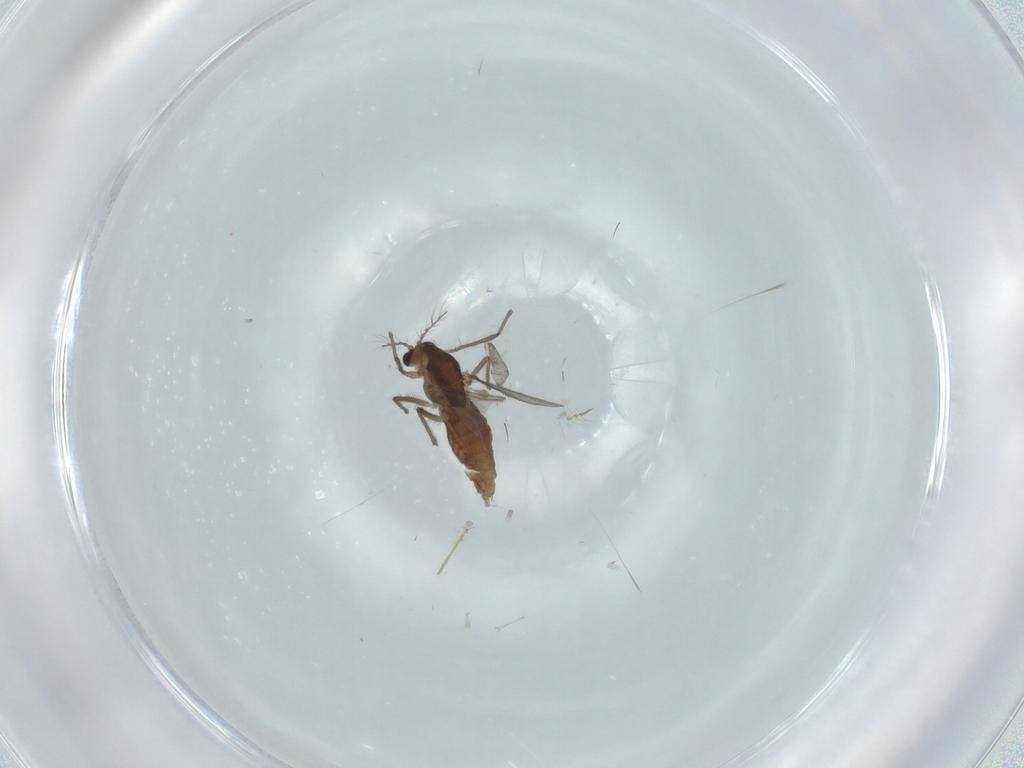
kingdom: Animalia
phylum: Arthropoda
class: Insecta
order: Diptera
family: Chironomidae
